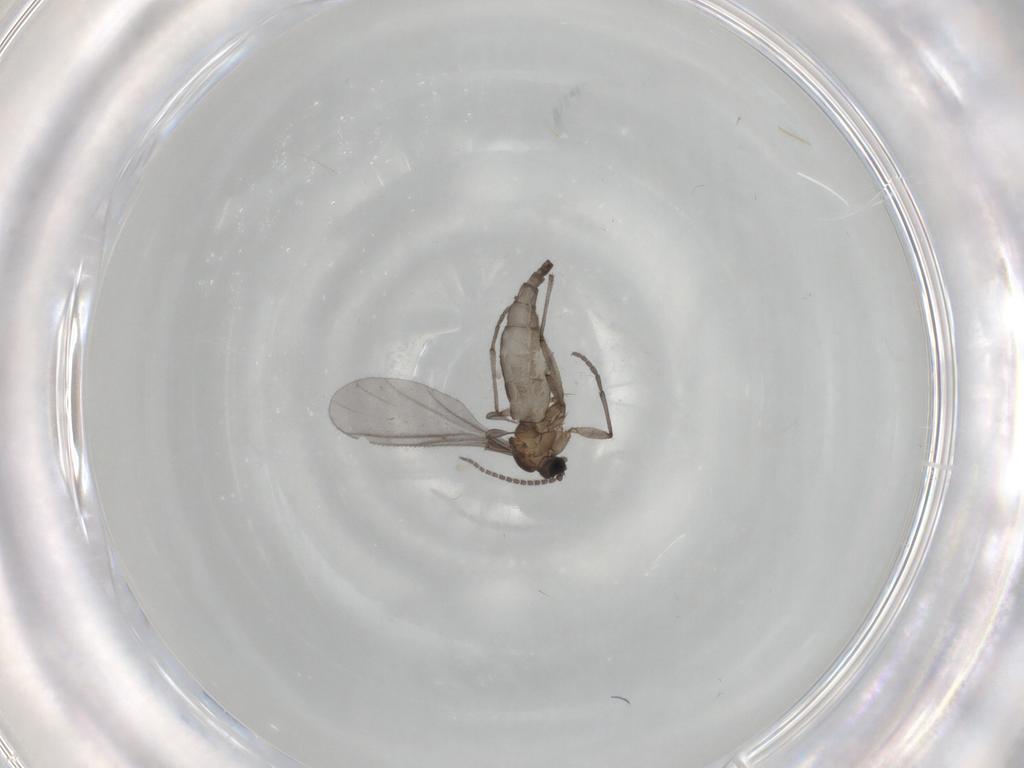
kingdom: Animalia
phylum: Arthropoda
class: Insecta
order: Diptera
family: Sciaridae
